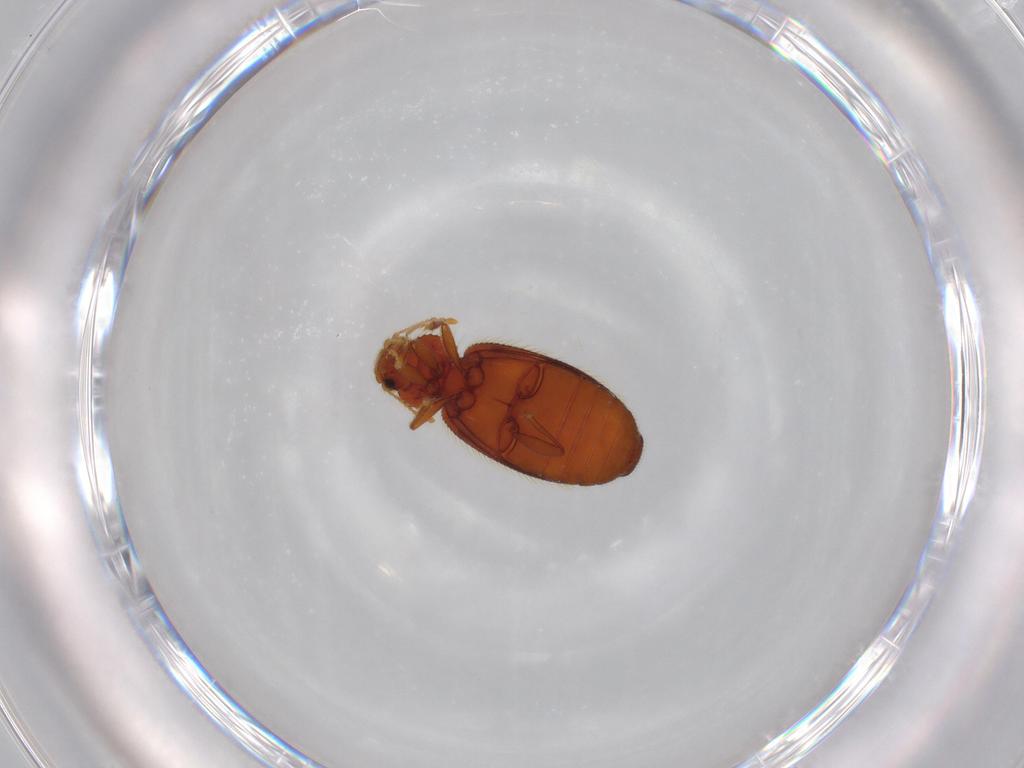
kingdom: Animalia
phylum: Arthropoda
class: Insecta
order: Coleoptera
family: Latridiidae
